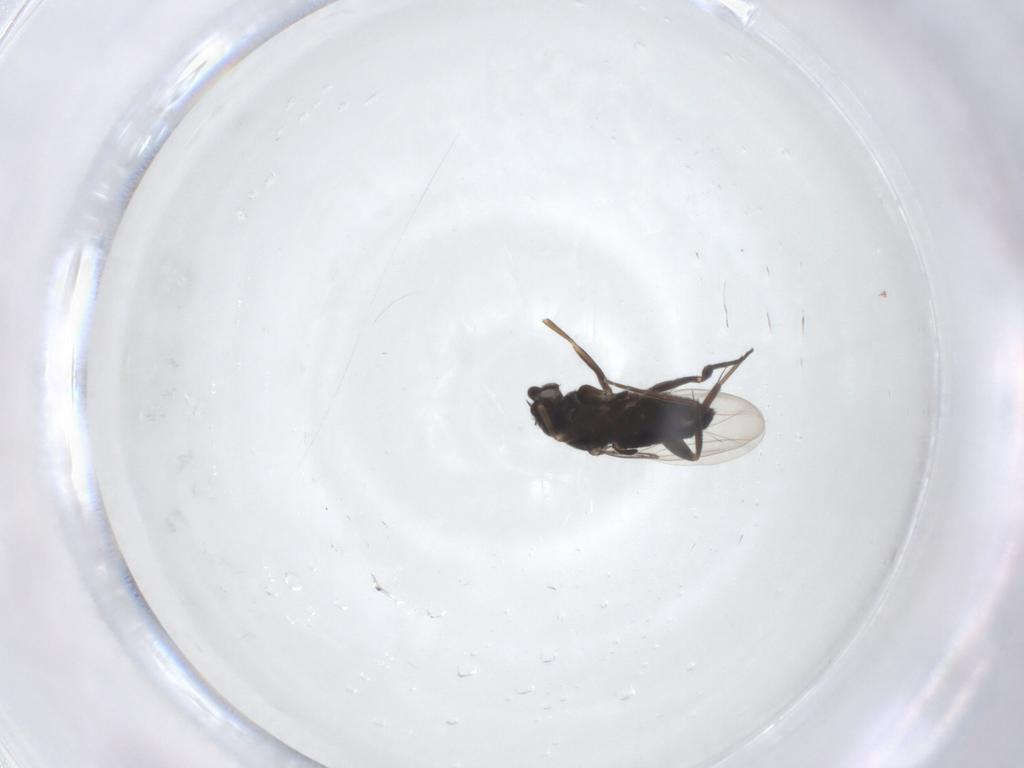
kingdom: Animalia
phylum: Arthropoda
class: Insecta
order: Diptera
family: Phoridae
